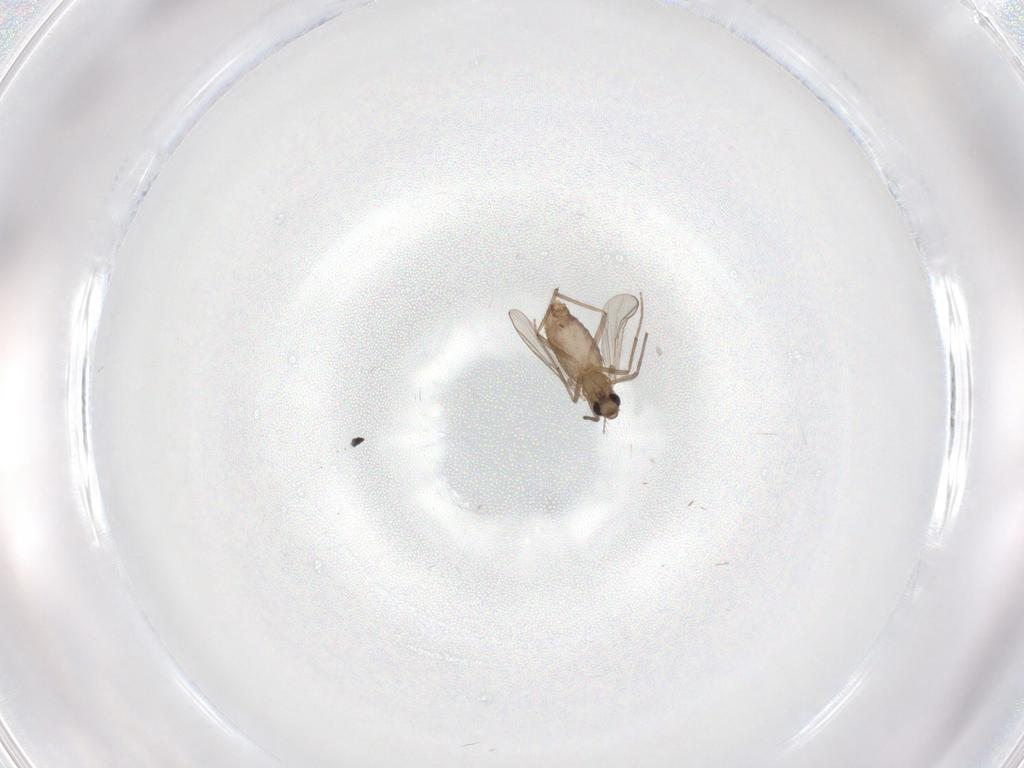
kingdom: Animalia
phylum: Arthropoda
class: Insecta
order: Diptera
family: Chironomidae
